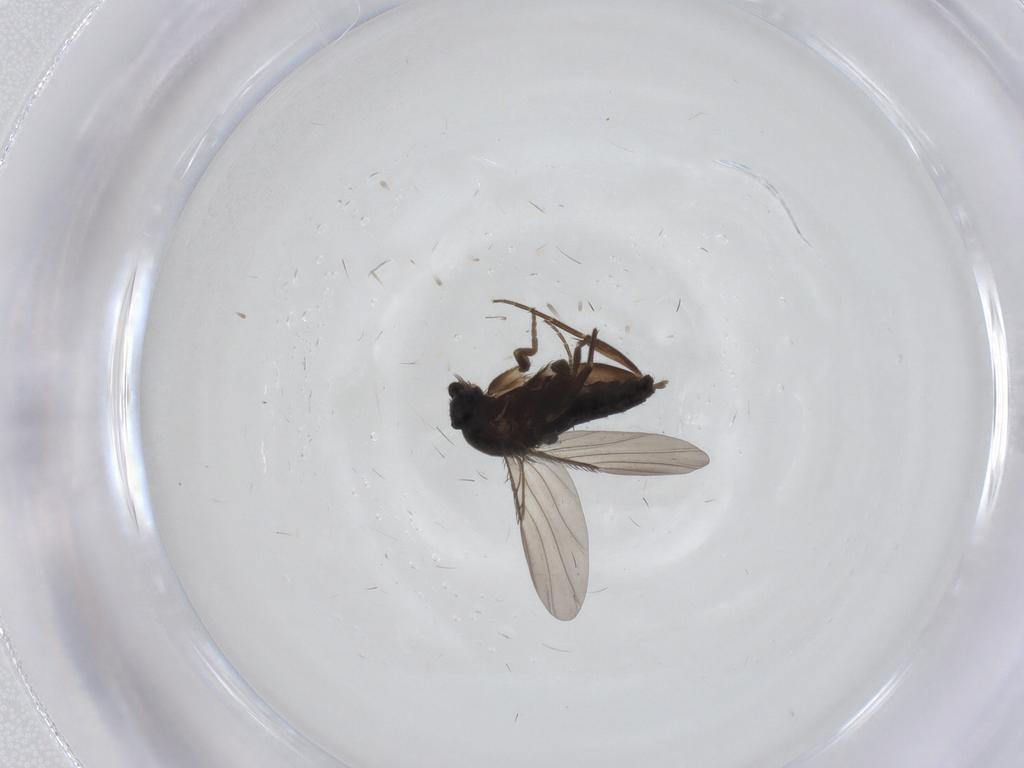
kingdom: Animalia
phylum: Arthropoda
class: Insecta
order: Diptera
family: Phoridae
